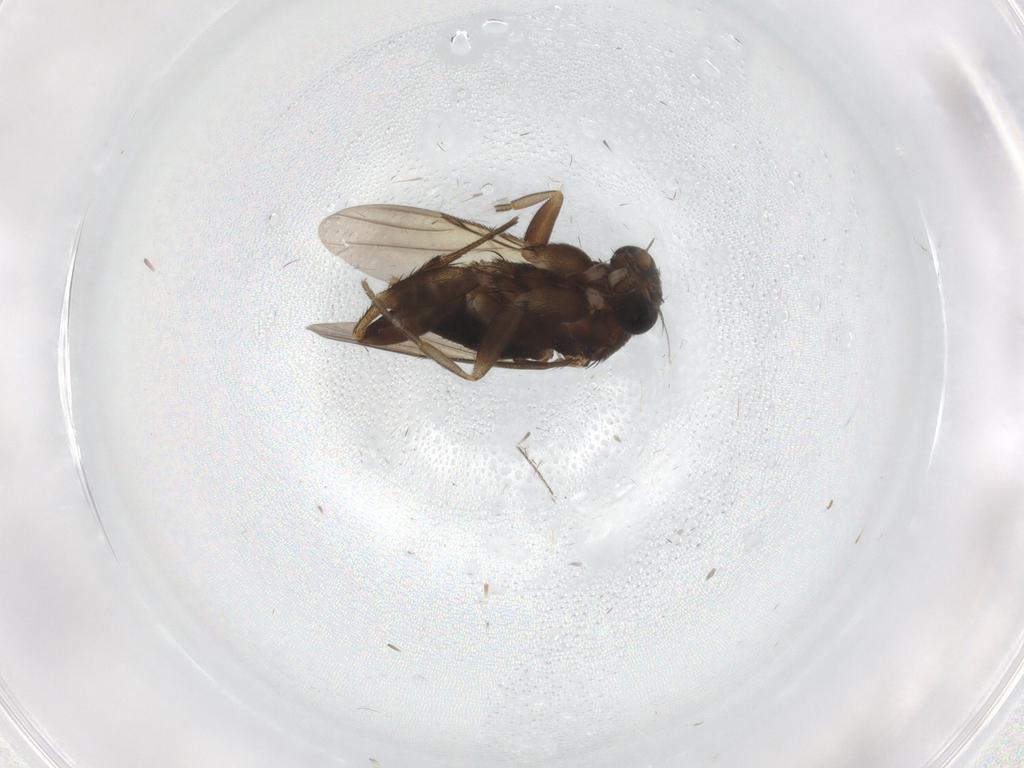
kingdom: Animalia
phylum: Arthropoda
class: Insecta
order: Diptera
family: Phoridae
